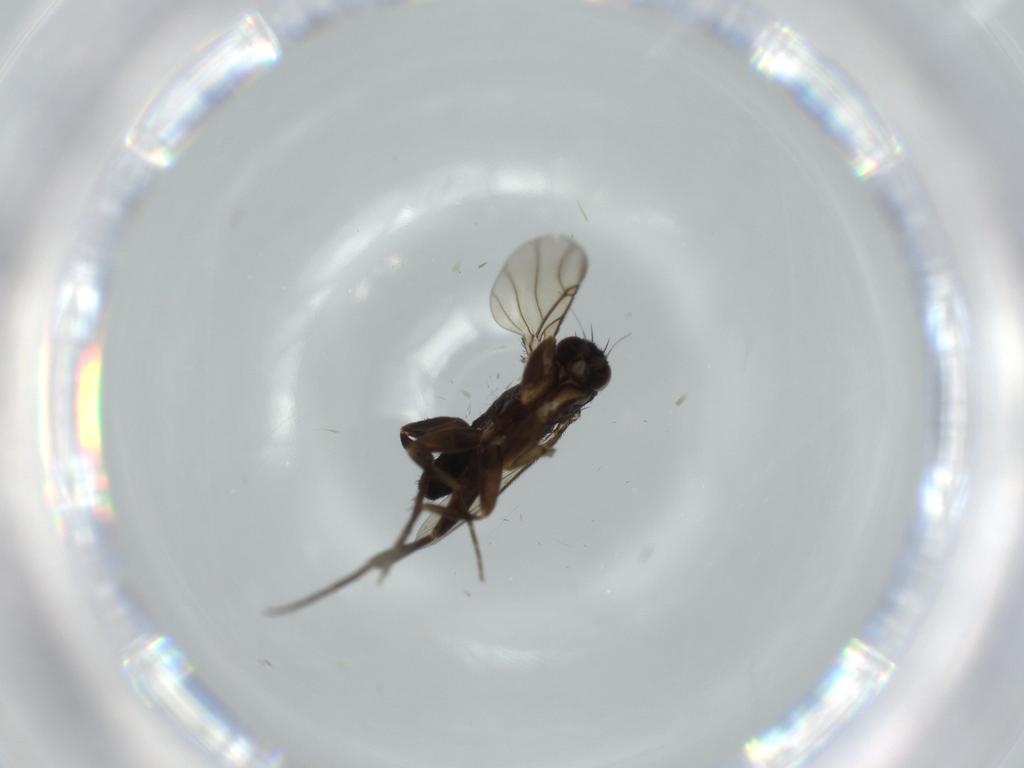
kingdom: Animalia
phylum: Arthropoda
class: Insecta
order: Diptera
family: Phoridae
